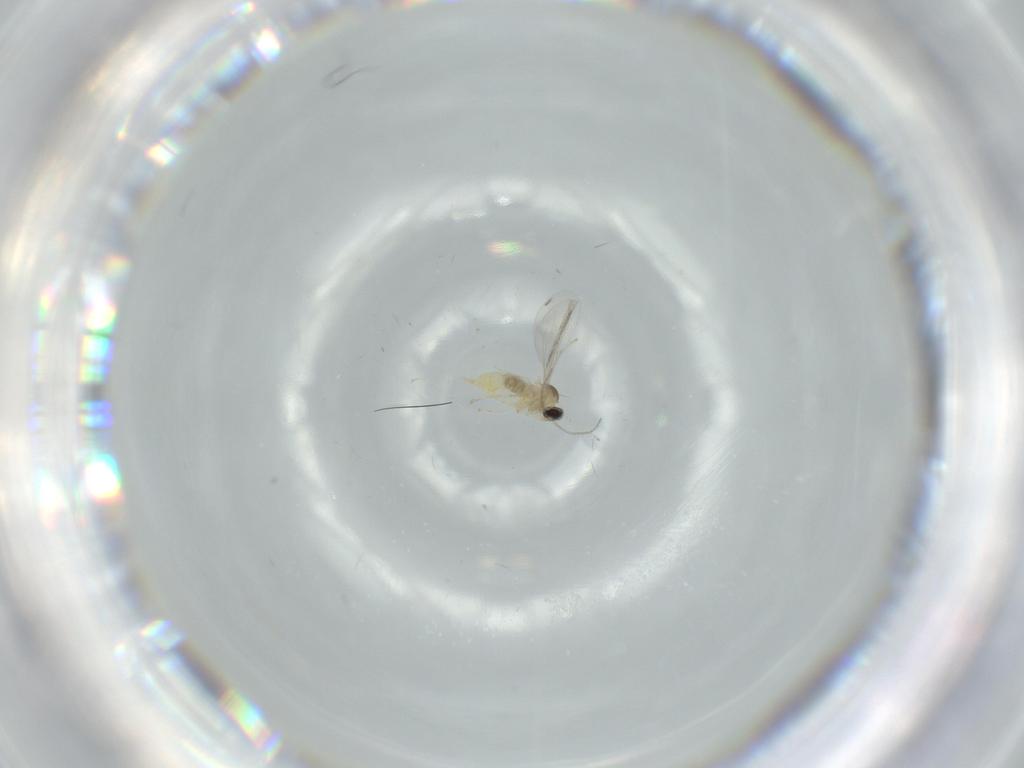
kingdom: Animalia
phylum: Arthropoda
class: Insecta
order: Diptera
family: Cecidomyiidae
